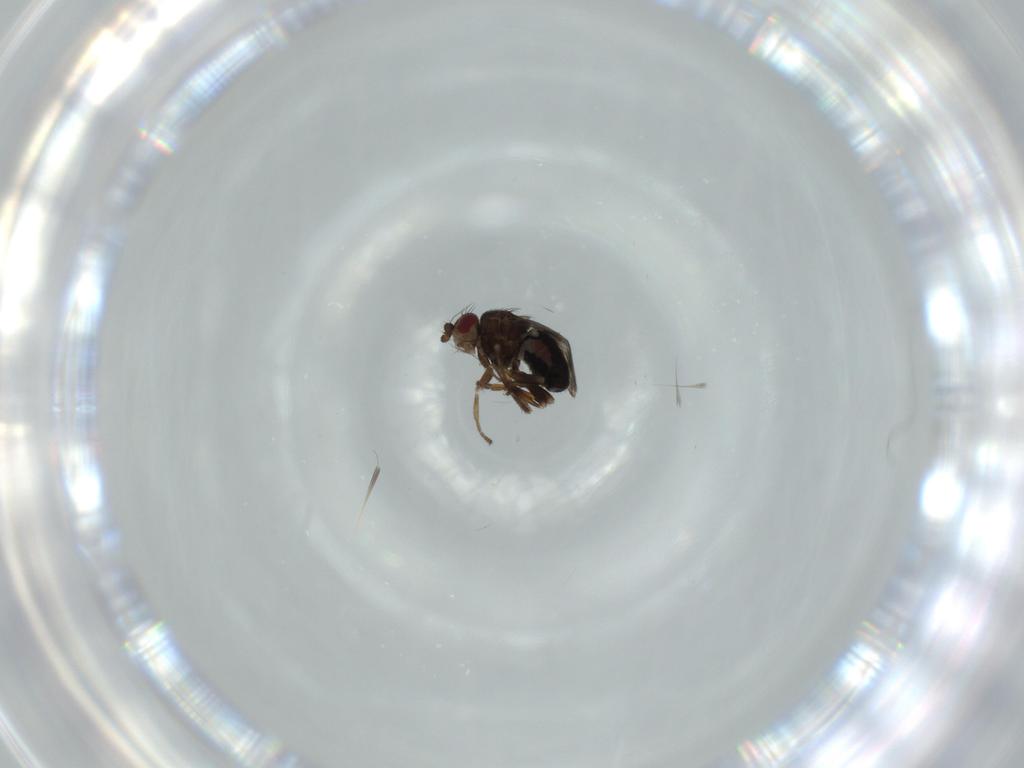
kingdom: Animalia
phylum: Arthropoda
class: Insecta
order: Diptera
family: Sphaeroceridae
